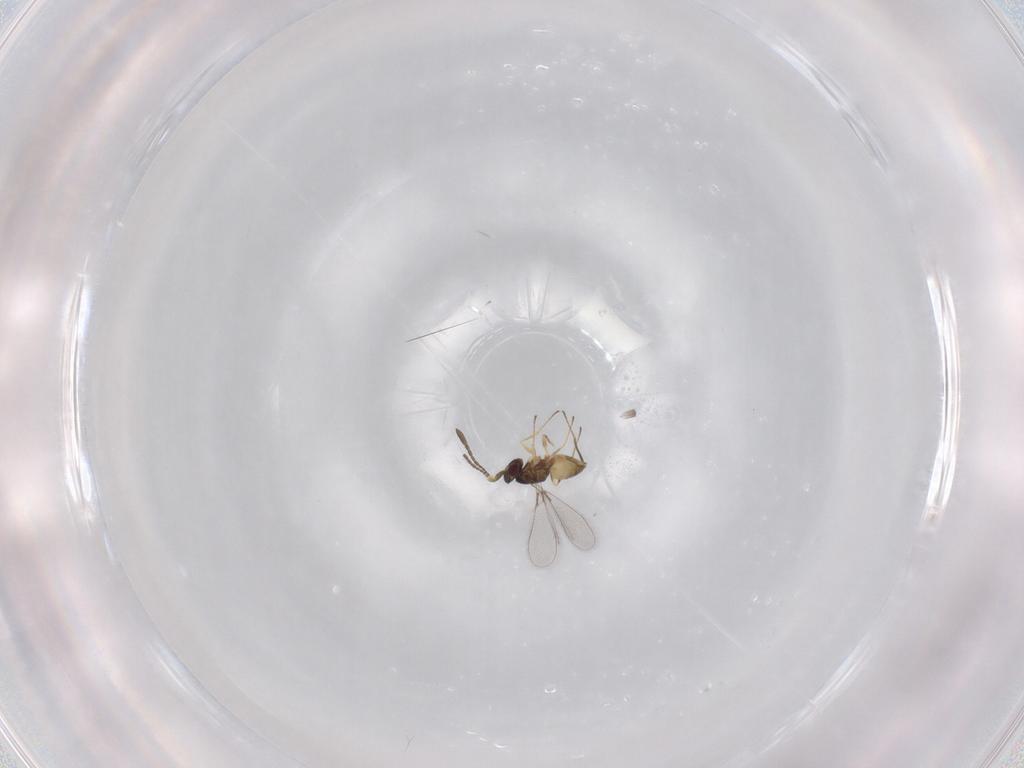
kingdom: Animalia
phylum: Arthropoda
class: Insecta
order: Hymenoptera
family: Mymaridae
